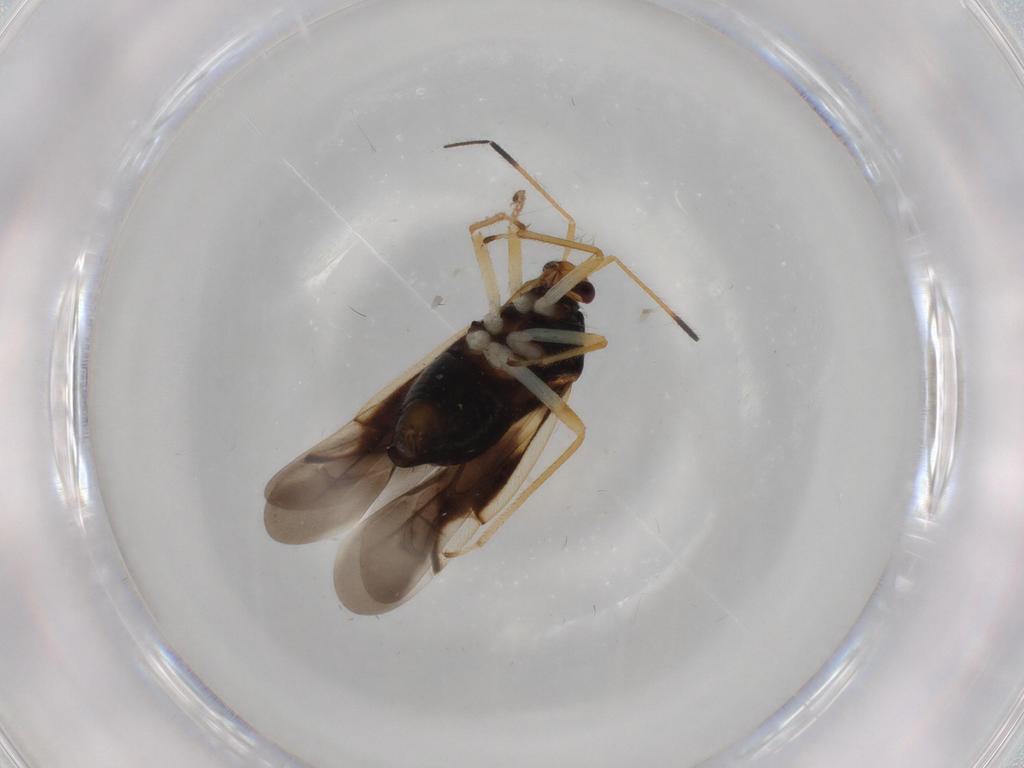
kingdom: Animalia
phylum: Arthropoda
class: Insecta
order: Hemiptera
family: Miridae
